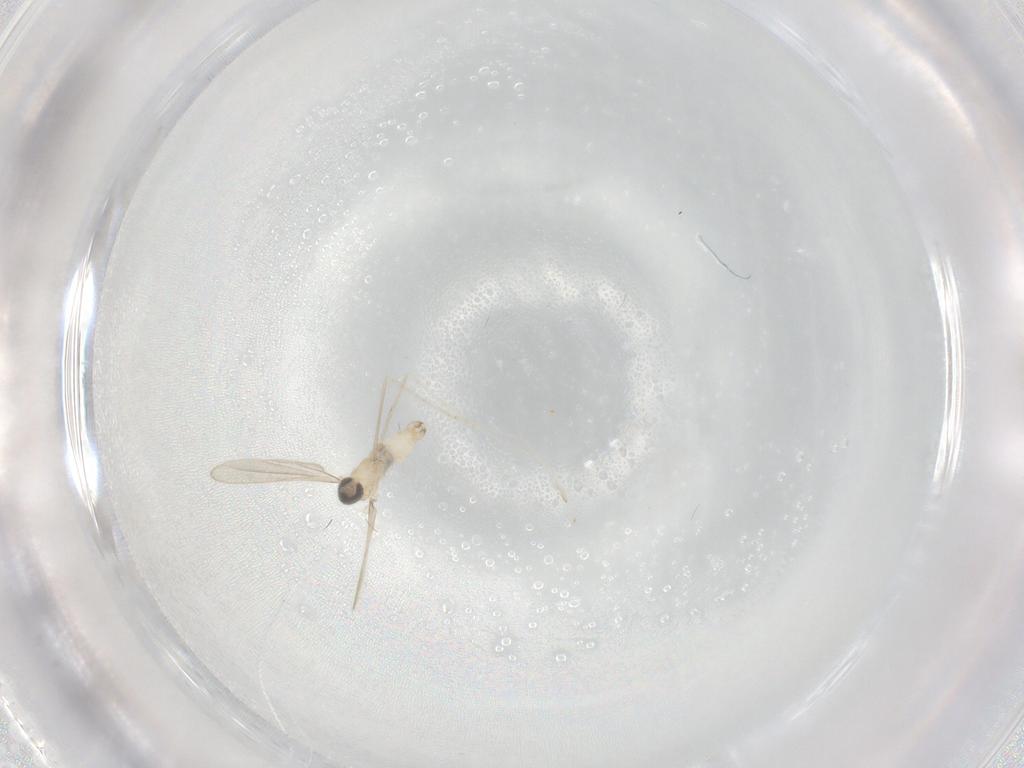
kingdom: Animalia
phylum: Arthropoda
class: Insecta
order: Diptera
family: Cecidomyiidae
